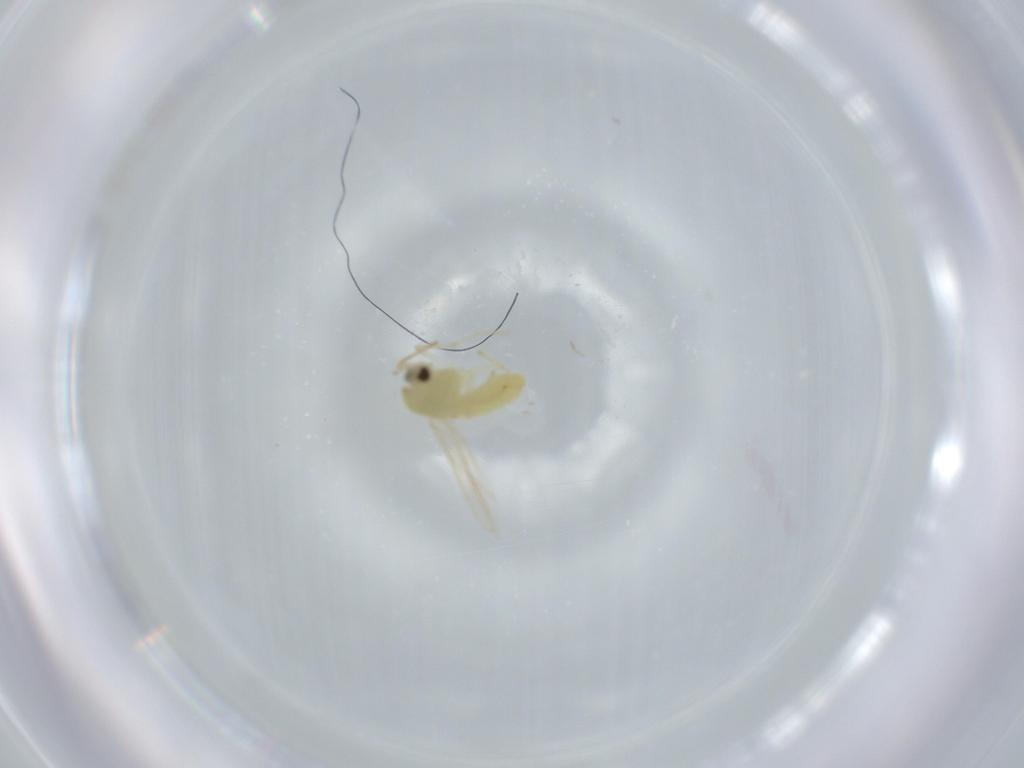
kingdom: Animalia
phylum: Arthropoda
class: Insecta
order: Diptera
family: Chironomidae
